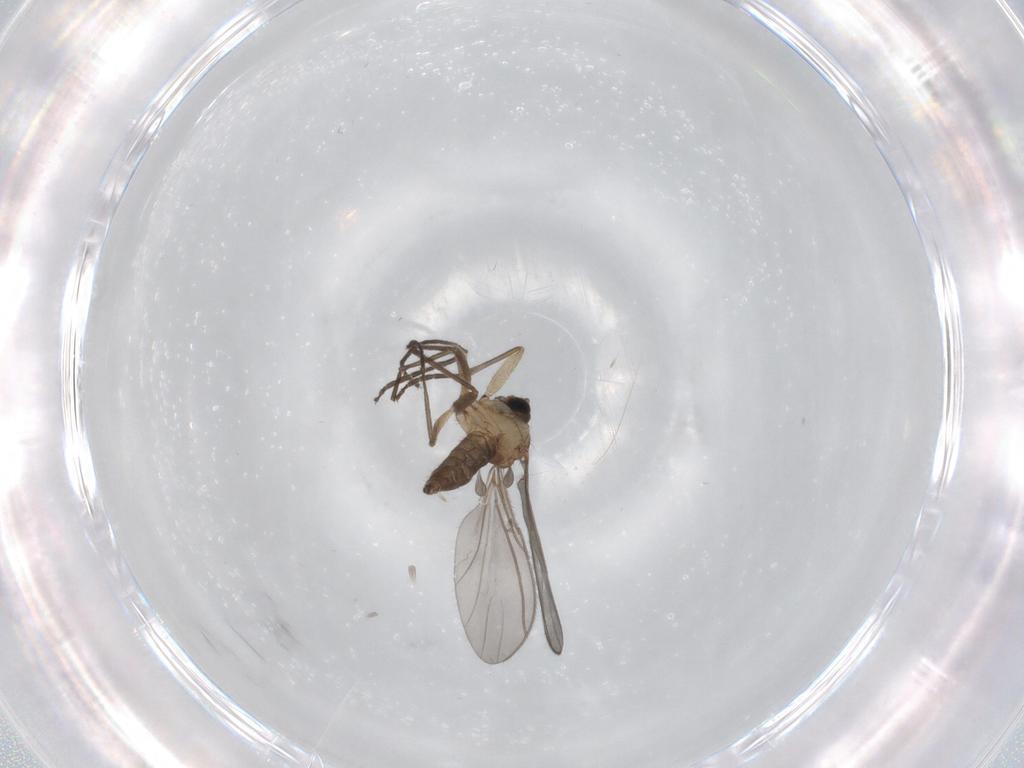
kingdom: Animalia
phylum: Arthropoda
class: Insecta
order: Diptera
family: Sciaridae
